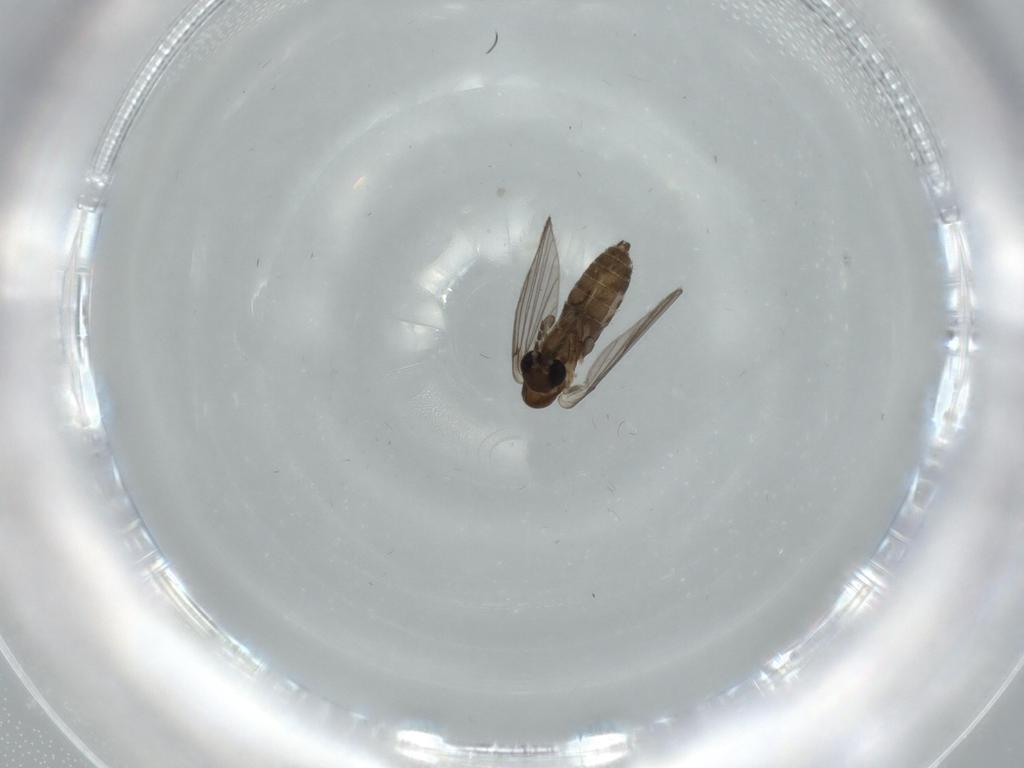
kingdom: Animalia
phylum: Arthropoda
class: Insecta
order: Diptera
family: Psychodidae
